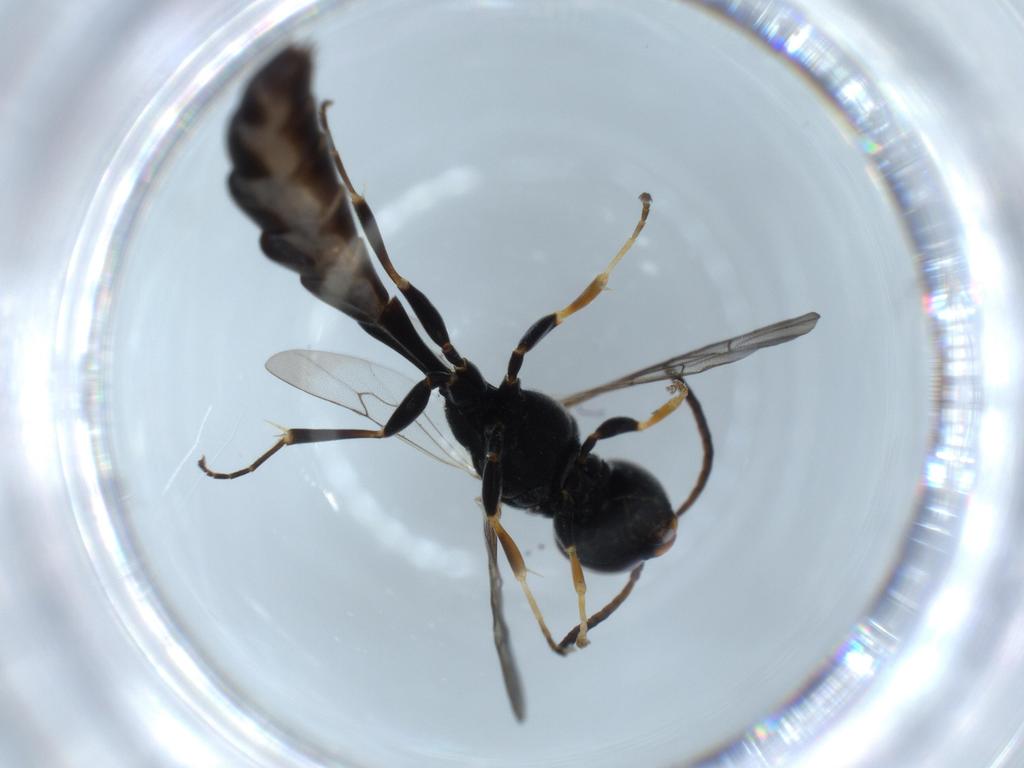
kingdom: Animalia
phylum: Arthropoda
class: Insecta
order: Hymenoptera
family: Crabronidae
